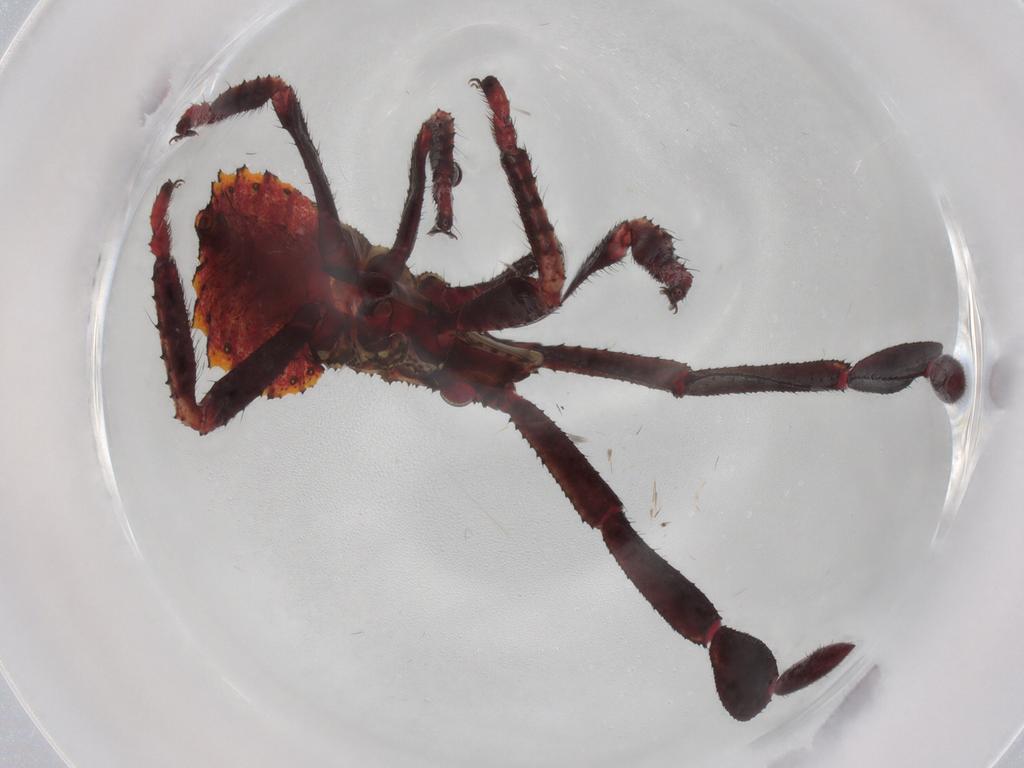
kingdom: Animalia
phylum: Arthropoda
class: Insecta
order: Hemiptera
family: Coreidae
